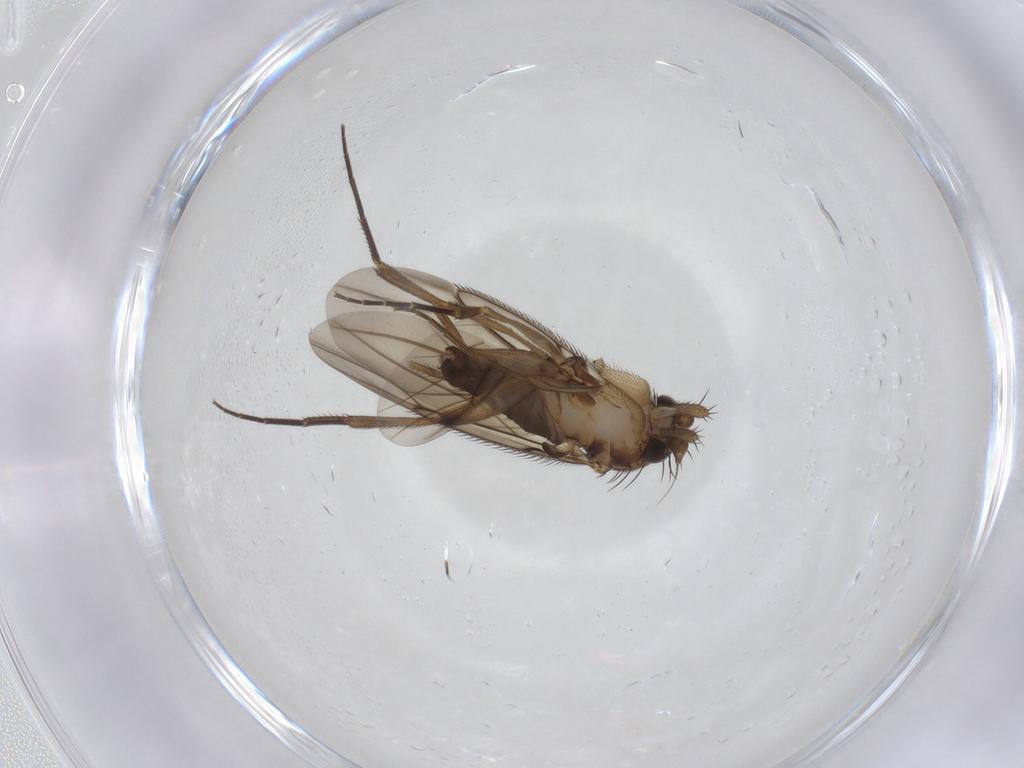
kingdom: Animalia
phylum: Arthropoda
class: Insecta
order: Diptera
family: Phoridae
